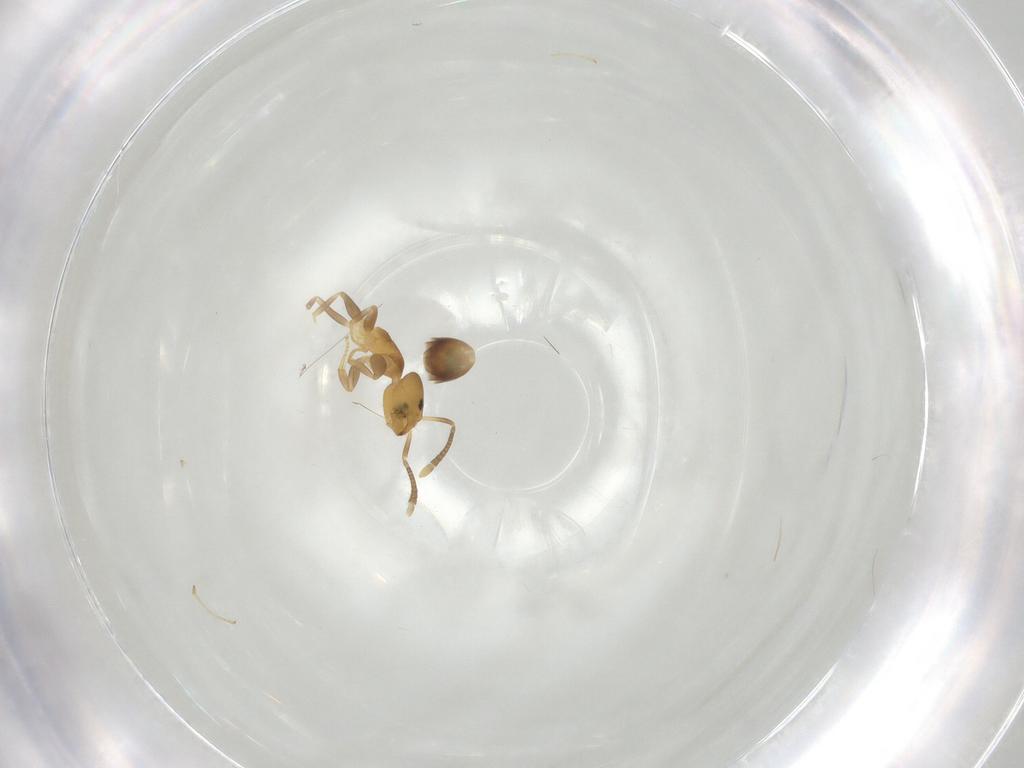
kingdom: Animalia
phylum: Arthropoda
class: Insecta
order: Hymenoptera
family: Formicidae
